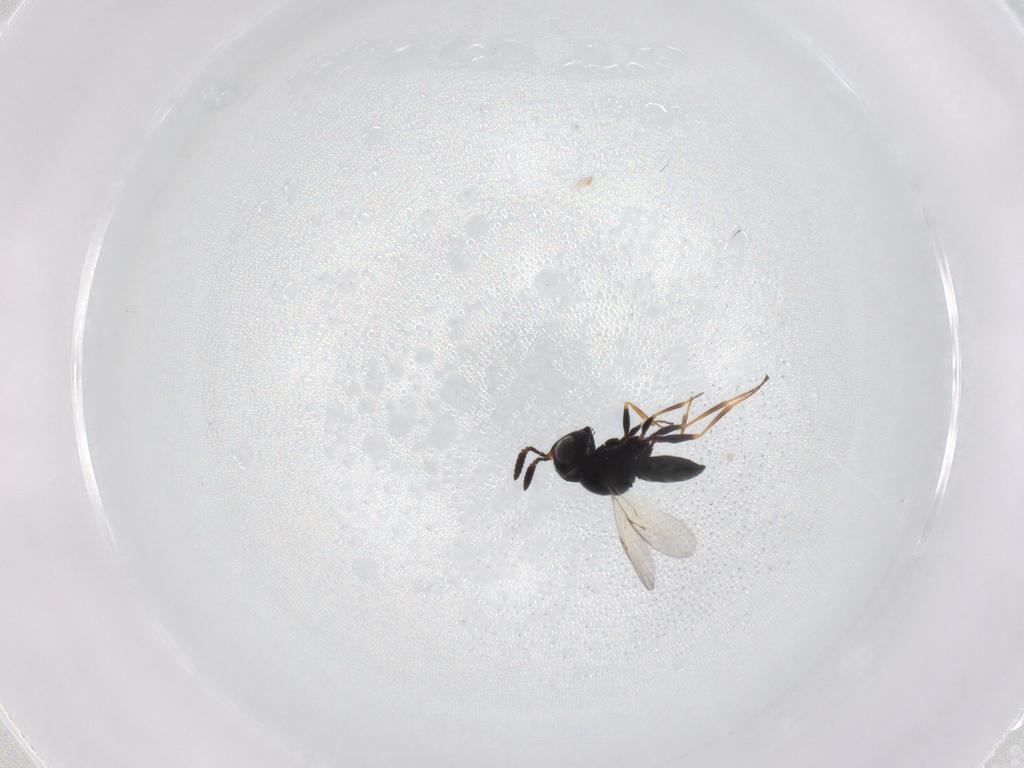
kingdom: Animalia
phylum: Arthropoda
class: Insecta
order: Hymenoptera
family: Scelionidae
